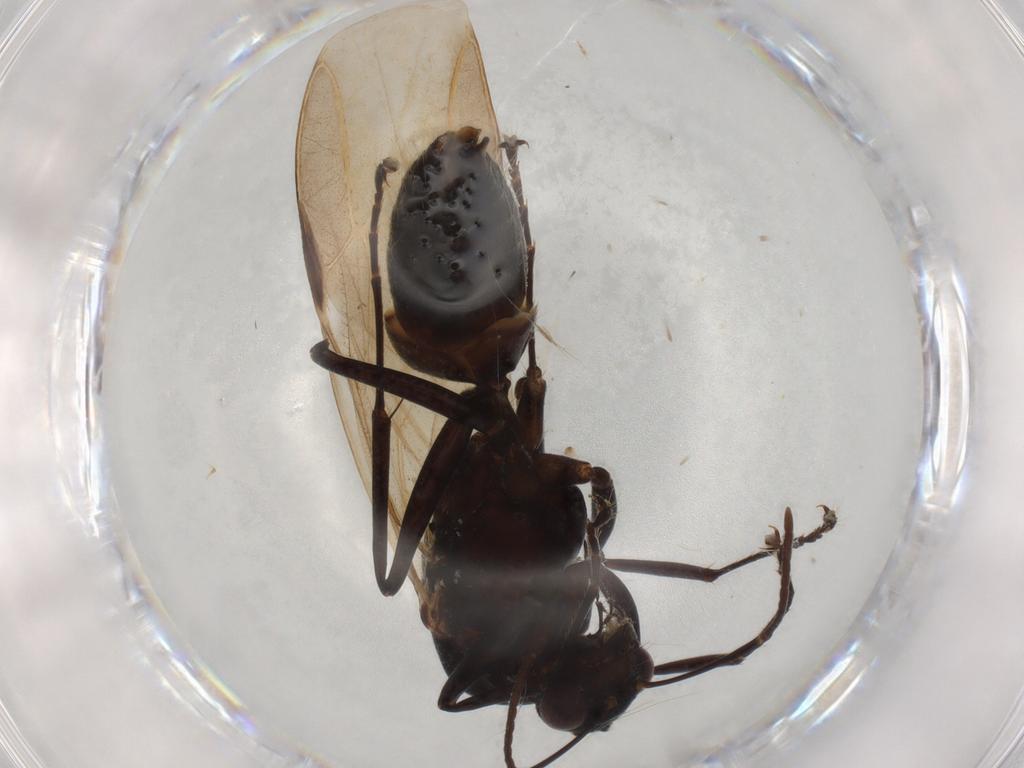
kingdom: Animalia
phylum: Arthropoda
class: Insecta
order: Hymenoptera
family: Formicidae
